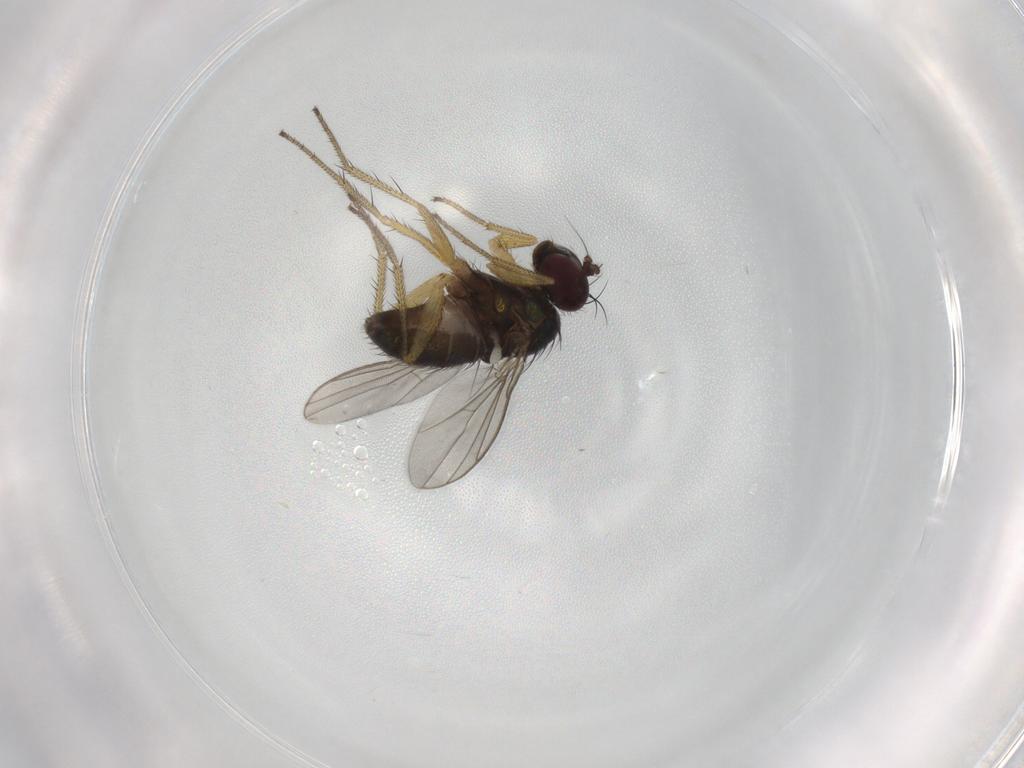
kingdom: Animalia
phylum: Arthropoda
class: Insecta
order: Diptera
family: Dolichopodidae
